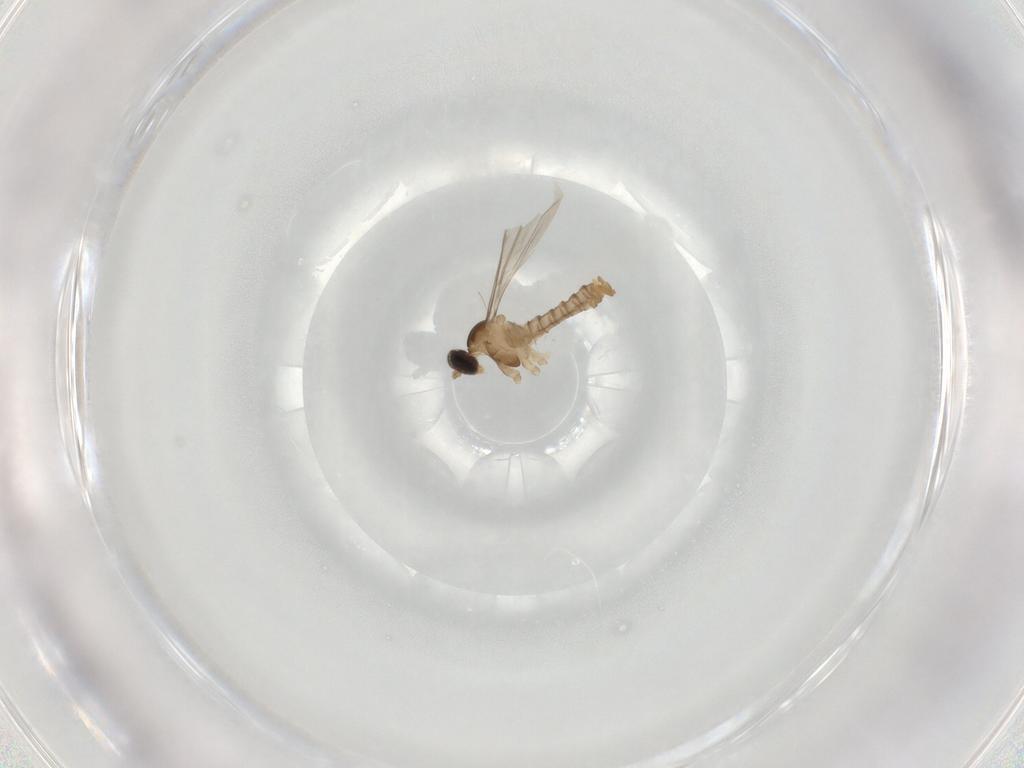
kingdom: Animalia
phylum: Arthropoda
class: Insecta
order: Diptera
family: Cecidomyiidae
